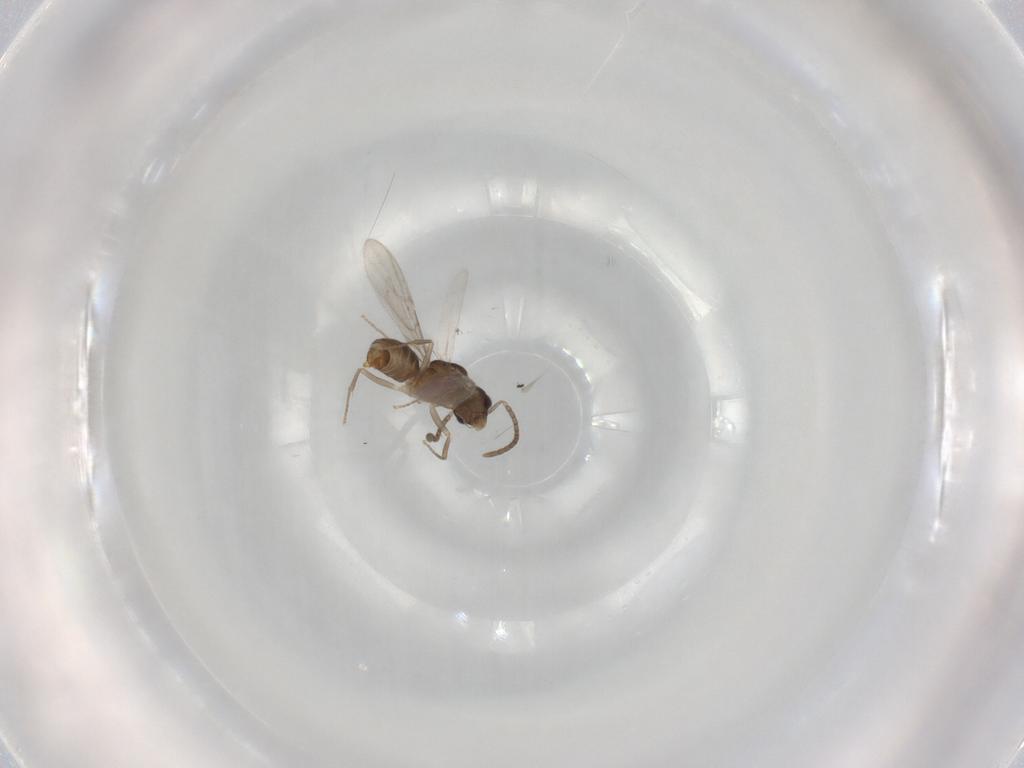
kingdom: Animalia
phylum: Arthropoda
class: Insecta
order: Hymenoptera
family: Formicidae
